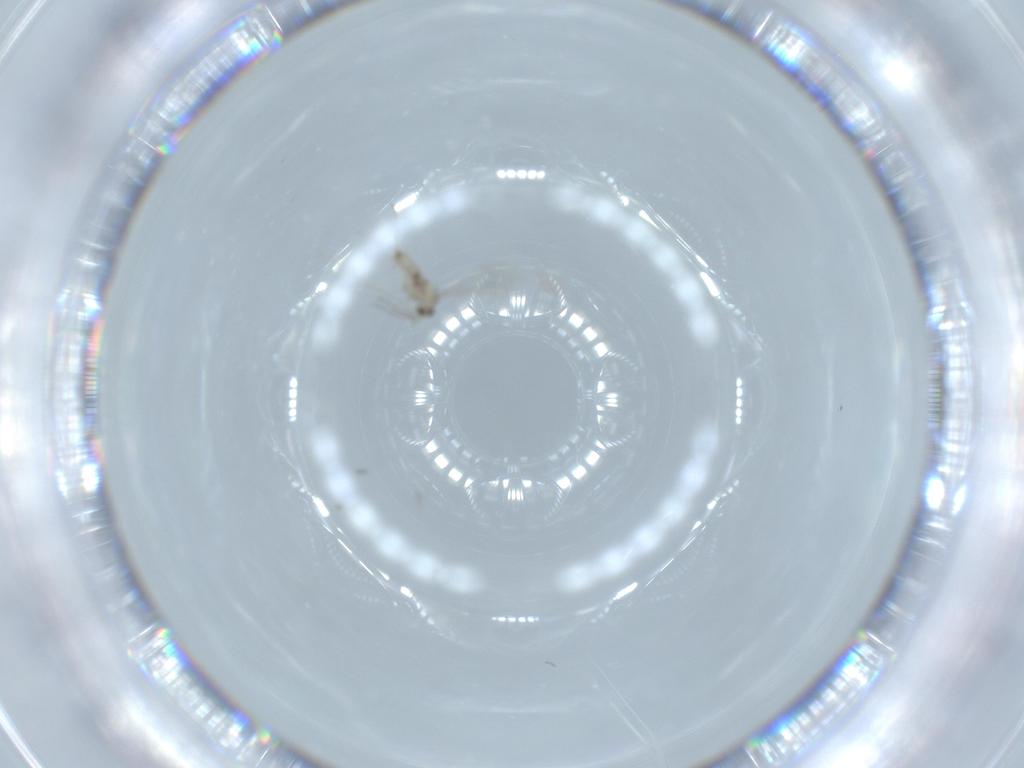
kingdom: Animalia
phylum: Arthropoda
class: Insecta
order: Diptera
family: Cecidomyiidae
